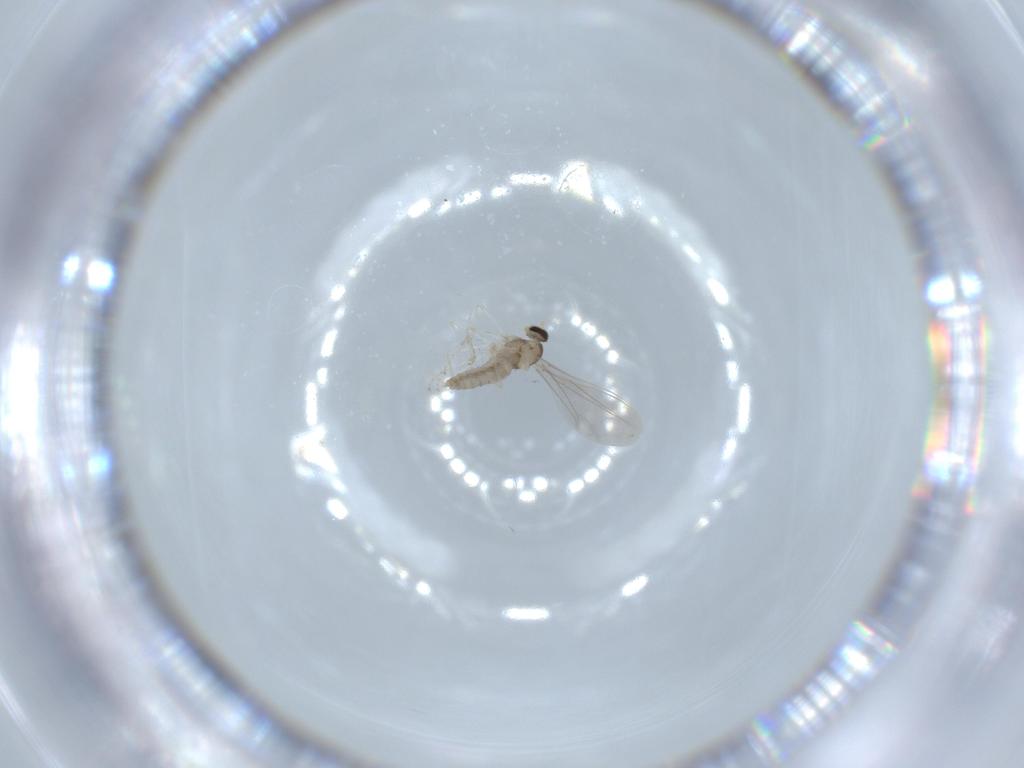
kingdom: Animalia
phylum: Arthropoda
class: Insecta
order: Diptera
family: Cecidomyiidae
